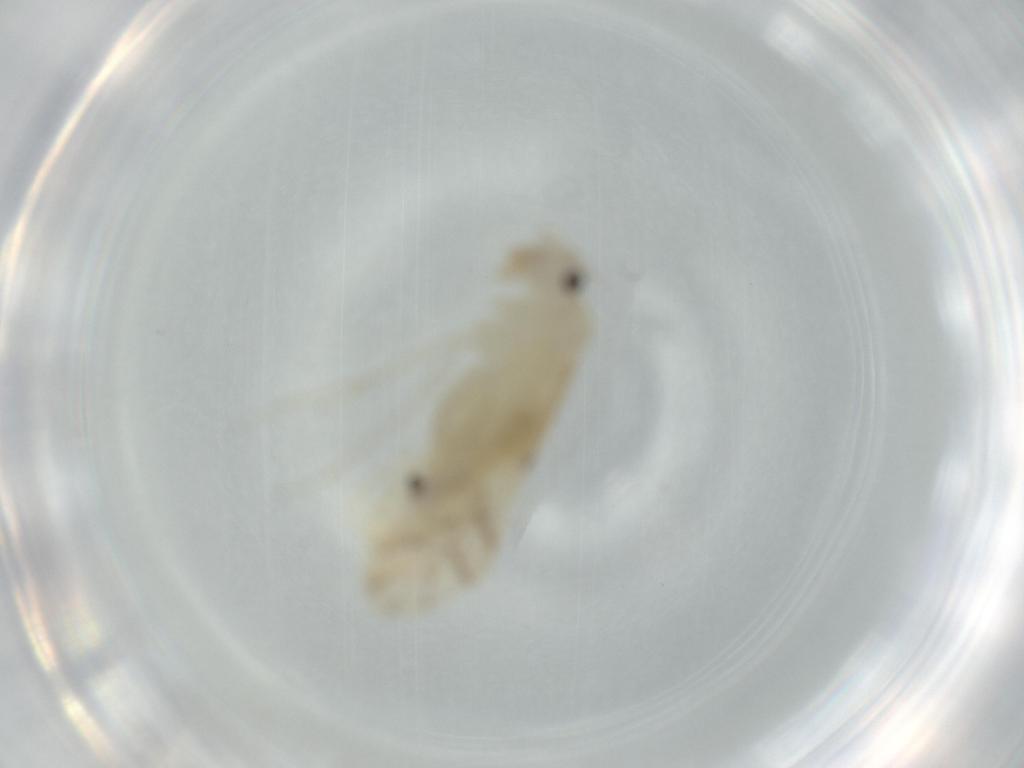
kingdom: Animalia
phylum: Arthropoda
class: Insecta
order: Psocodea
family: Caeciliusidae
